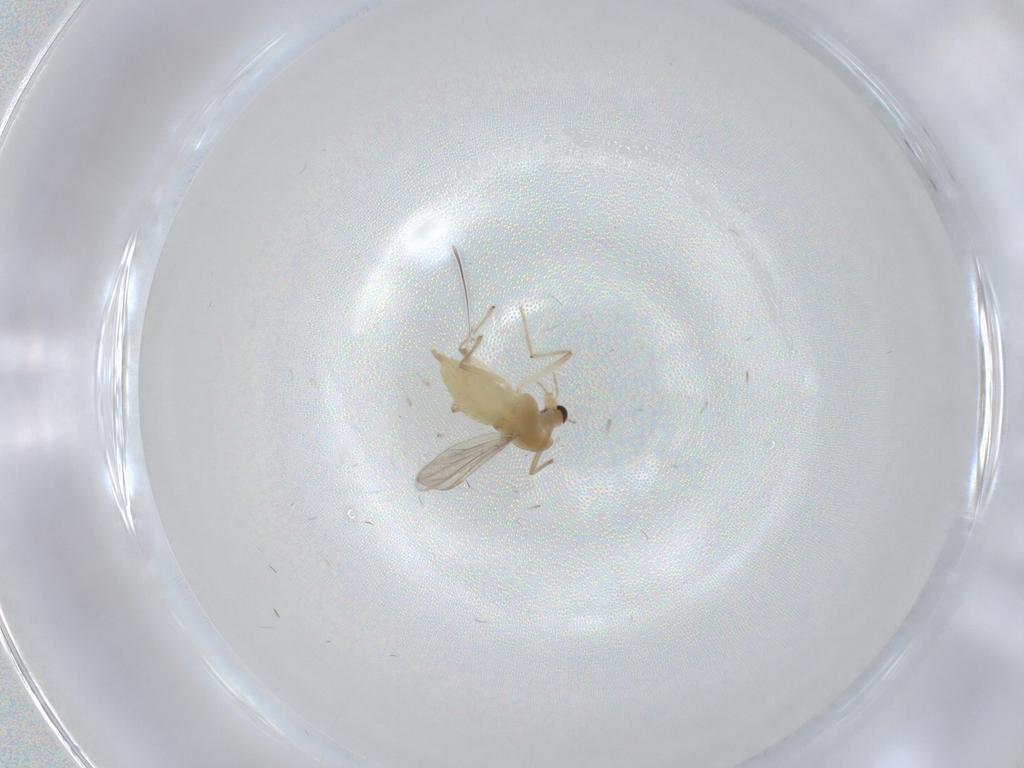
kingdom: Animalia
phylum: Arthropoda
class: Insecta
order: Diptera
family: Chironomidae
